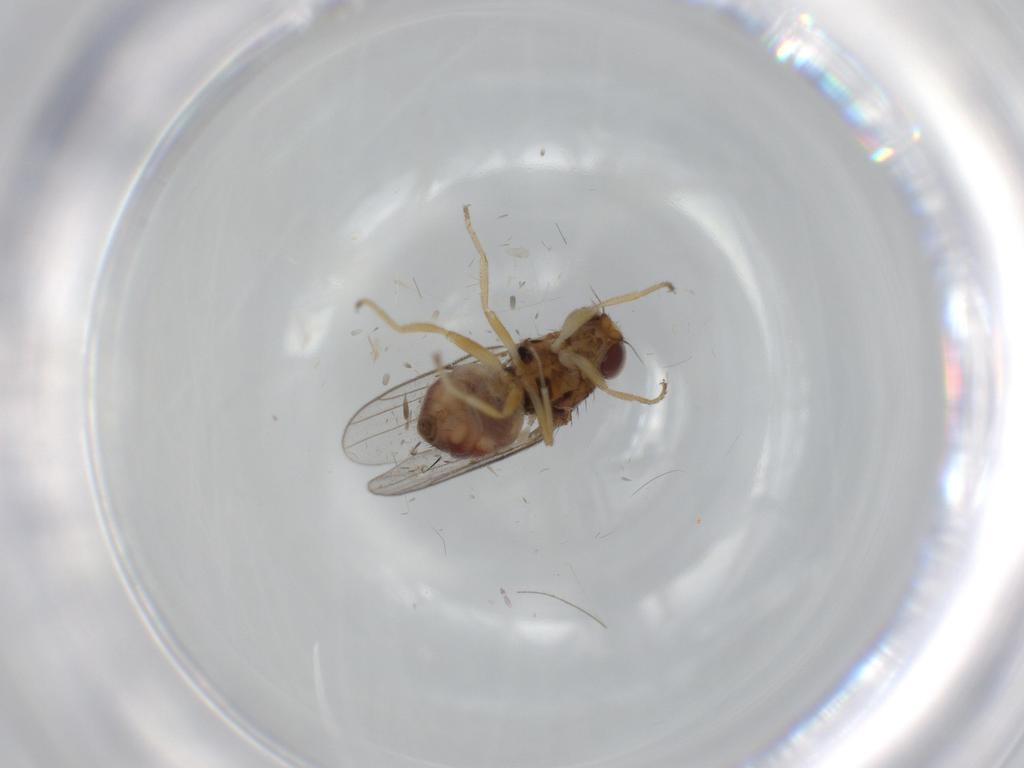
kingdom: Animalia
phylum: Arthropoda
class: Insecta
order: Diptera
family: Chloropidae
